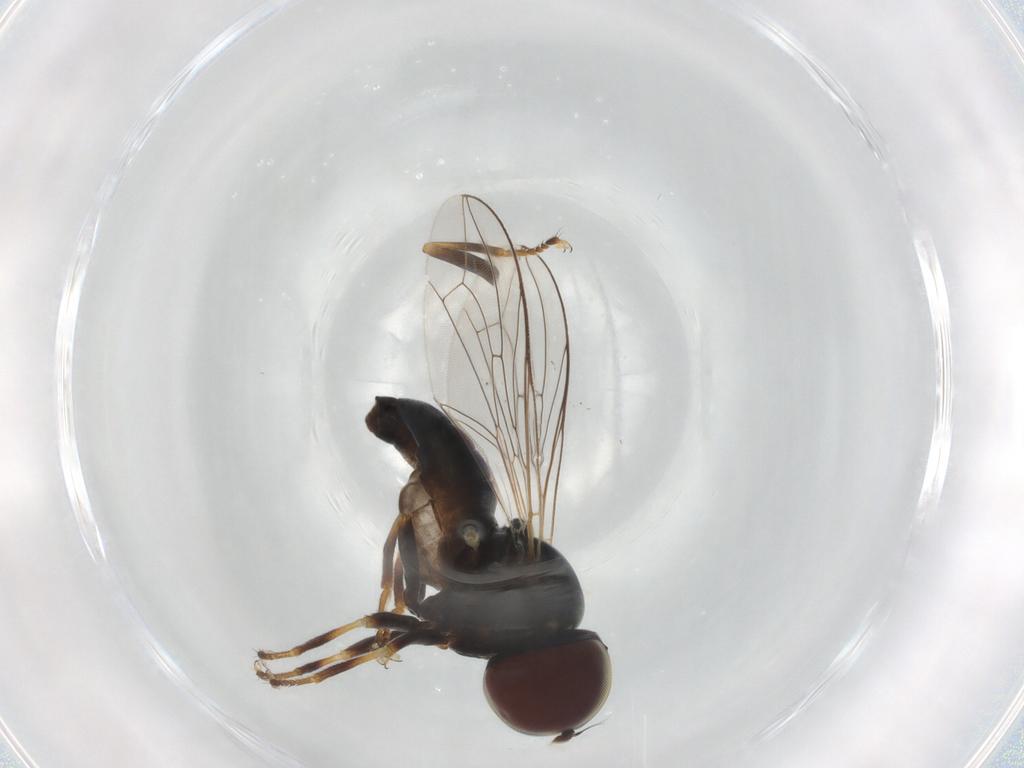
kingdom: Animalia
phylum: Arthropoda
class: Insecta
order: Diptera
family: Pipunculidae
